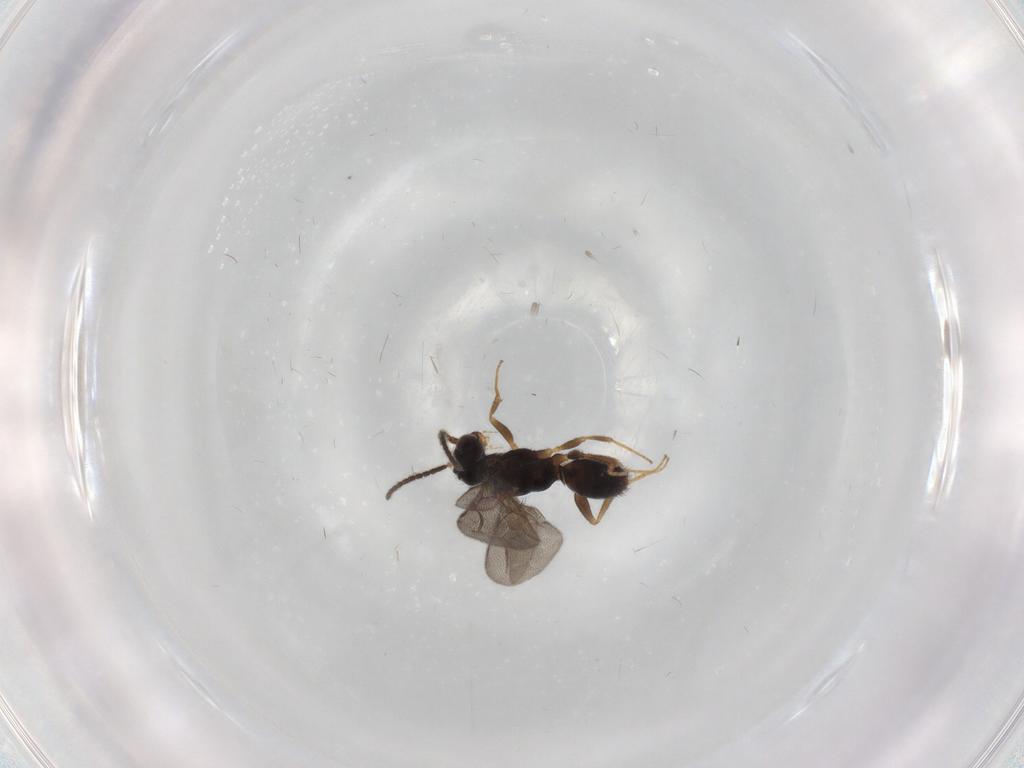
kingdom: Animalia
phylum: Arthropoda
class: Insecta
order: Hymenoptera
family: Bethylidae
